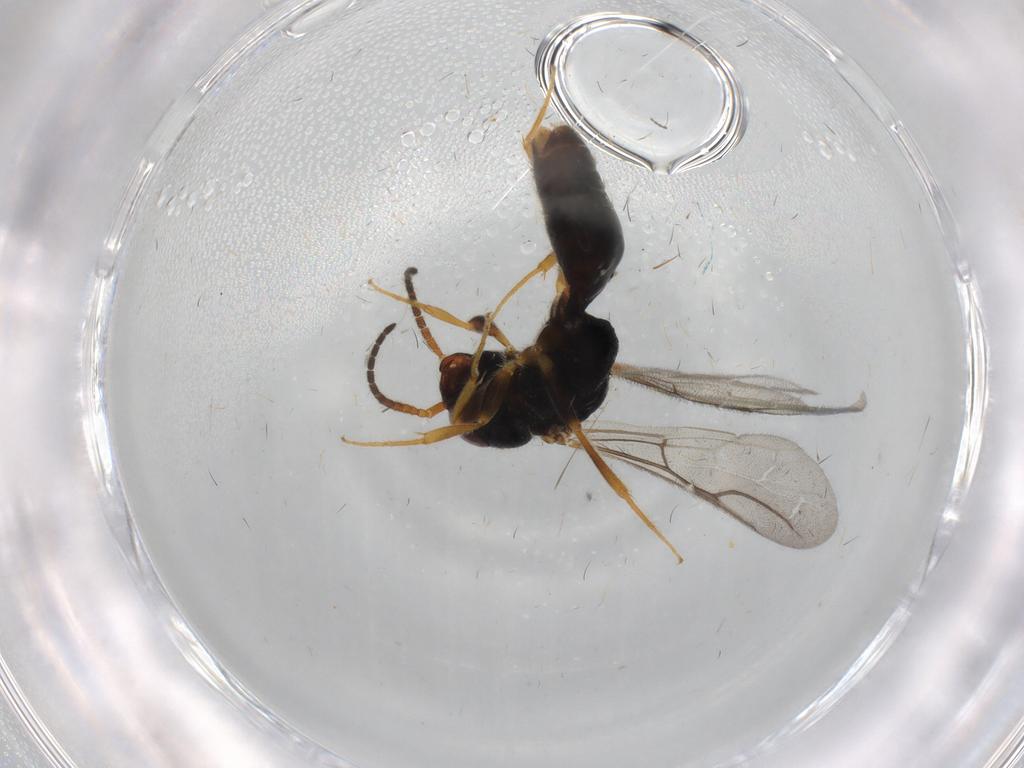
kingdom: Animalia
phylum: Arthropoda
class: Insecta
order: Hymenoptera
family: Bethylidae
